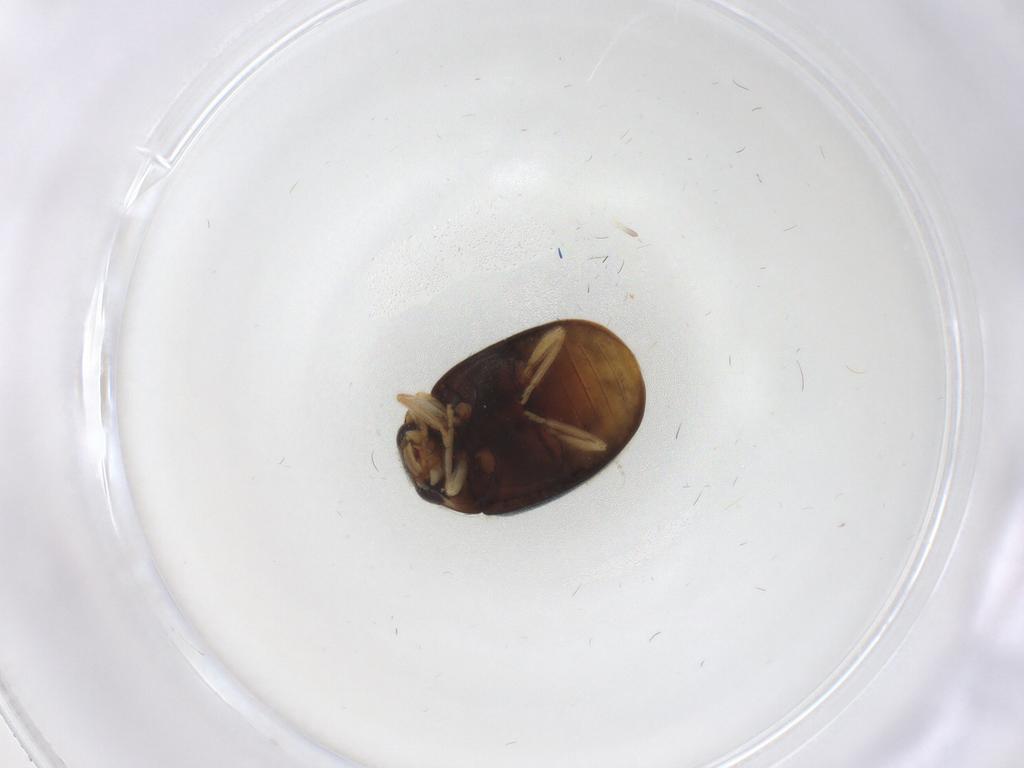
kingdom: Animalia
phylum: Arthropoda
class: Insecta
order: Coleoptera
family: Coccinellidae
